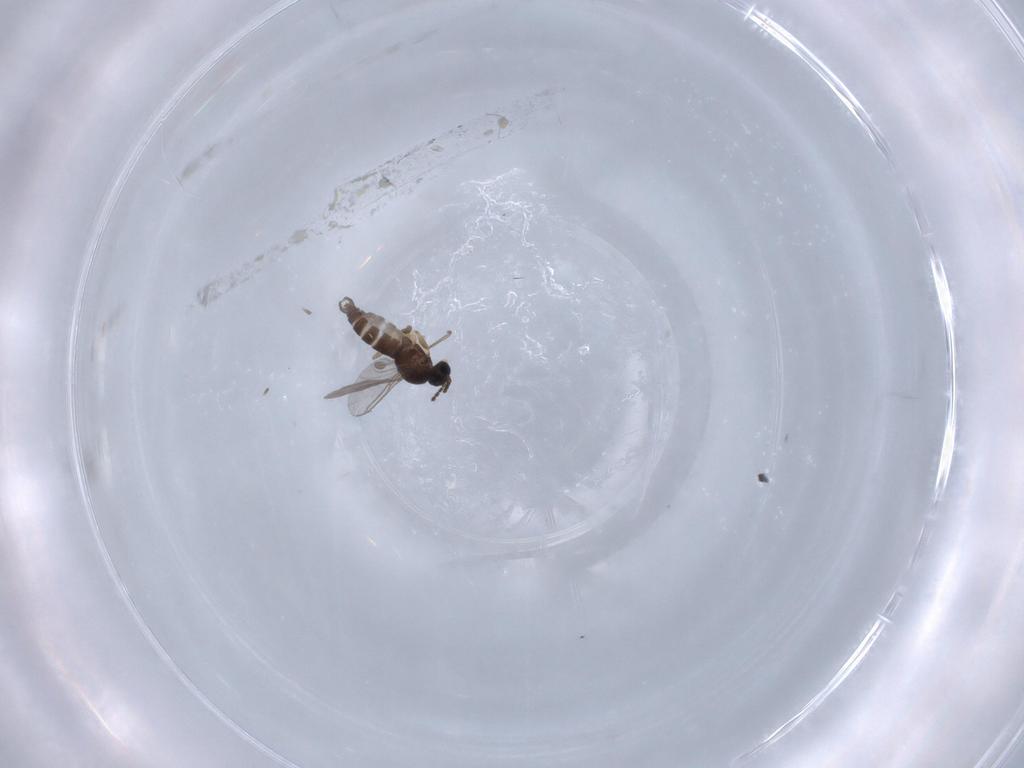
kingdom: Animalia
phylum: Arthropoda
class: Insecta
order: Diptera
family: Sciaridae
